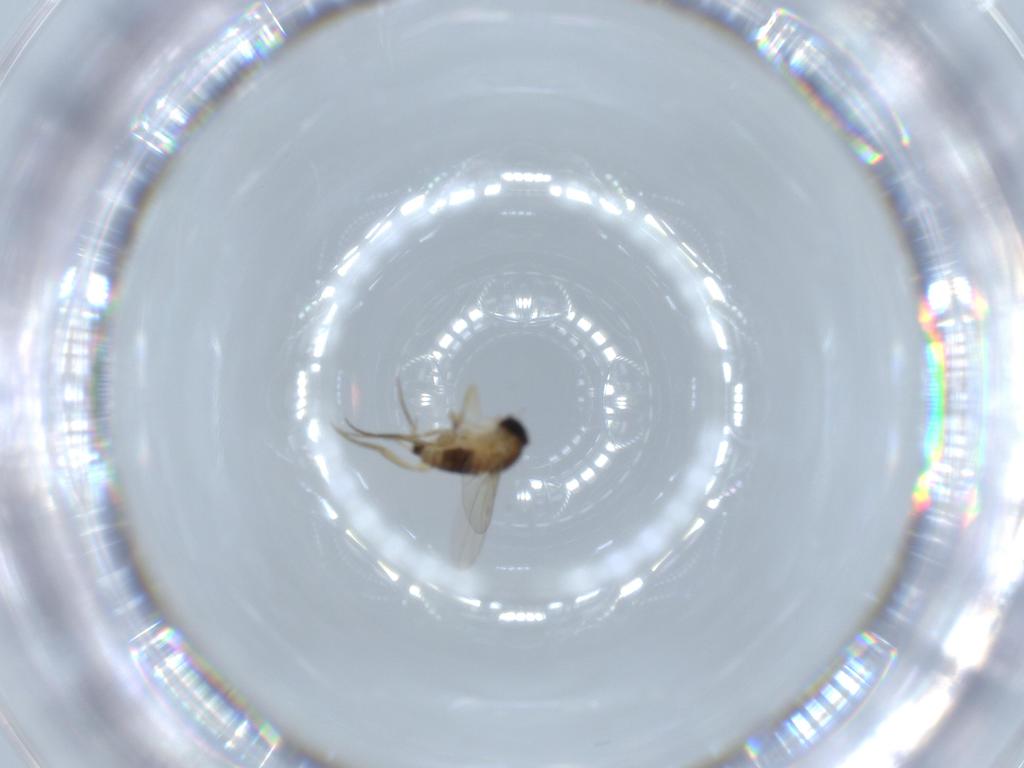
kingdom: Animalia
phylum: Arthropoda
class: Insecta
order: Diptera
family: Phoridae
